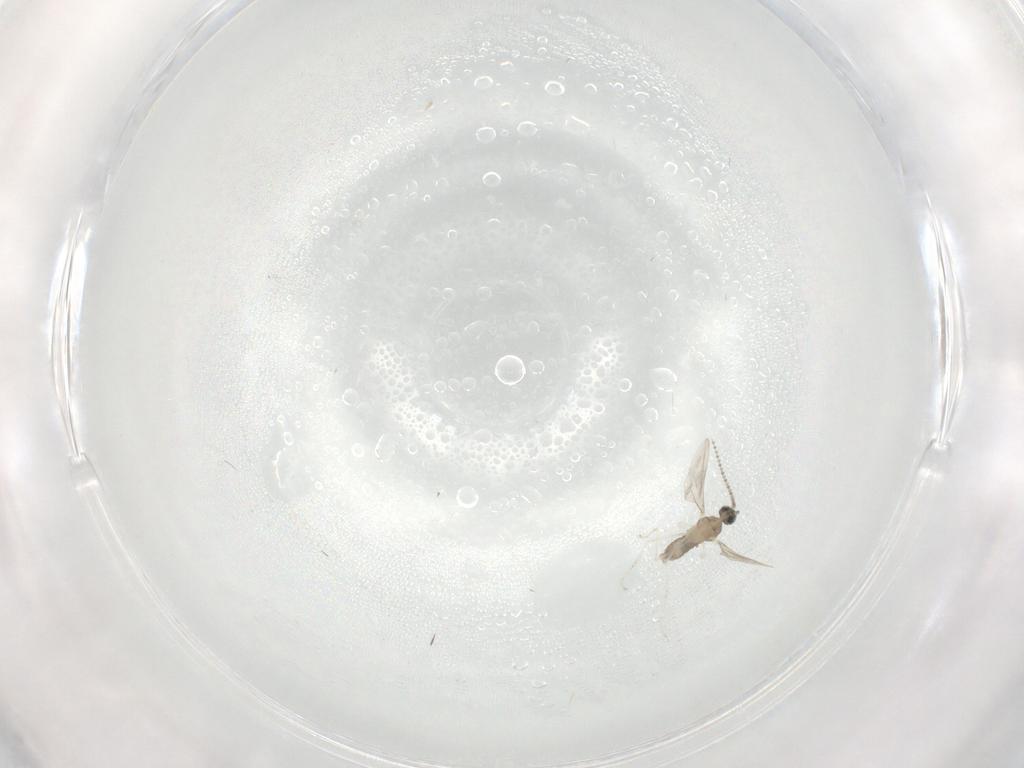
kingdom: Animalia
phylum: Arthropoda
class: Insecta
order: Diptera
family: Cecidomyiidae
